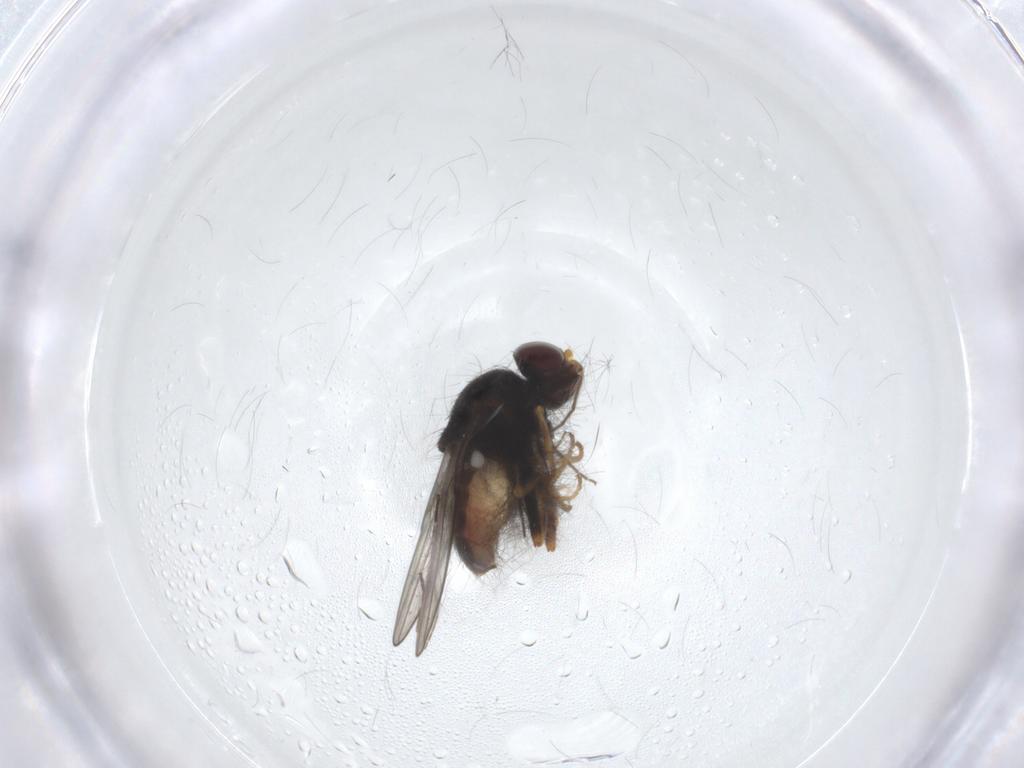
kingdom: Animalia
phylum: Arthropoda
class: Insecta
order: Diptera
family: Chloropidae
